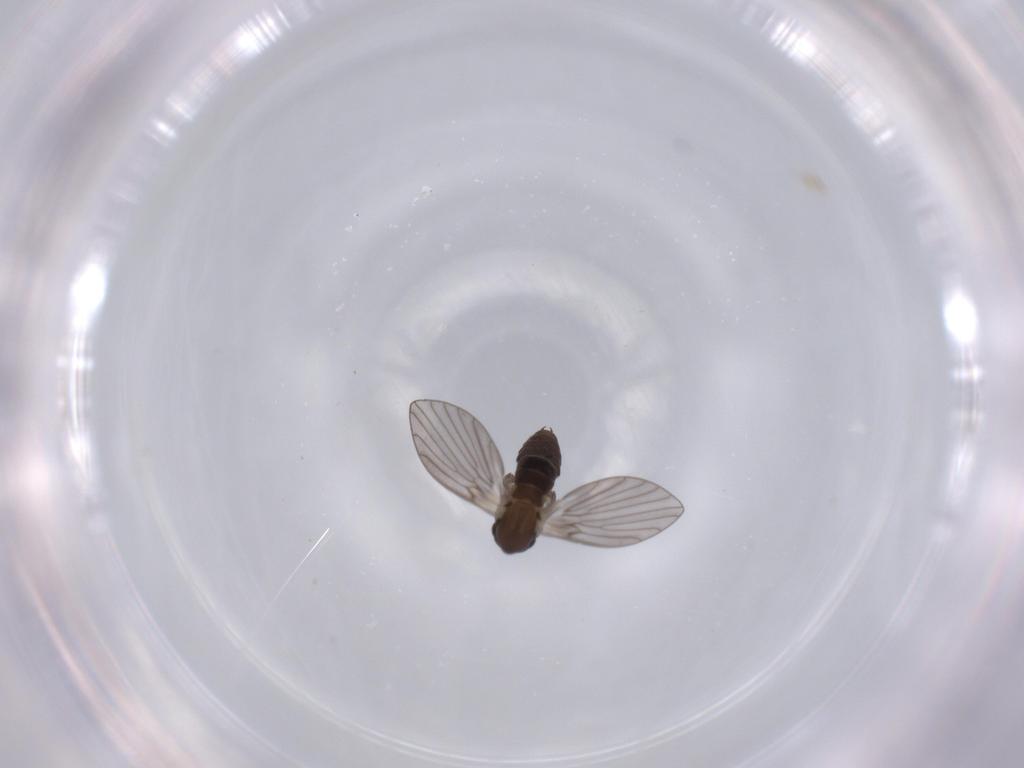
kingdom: Animalia
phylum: Arthropoda
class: Insecta
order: Diptera
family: Psychodidae
